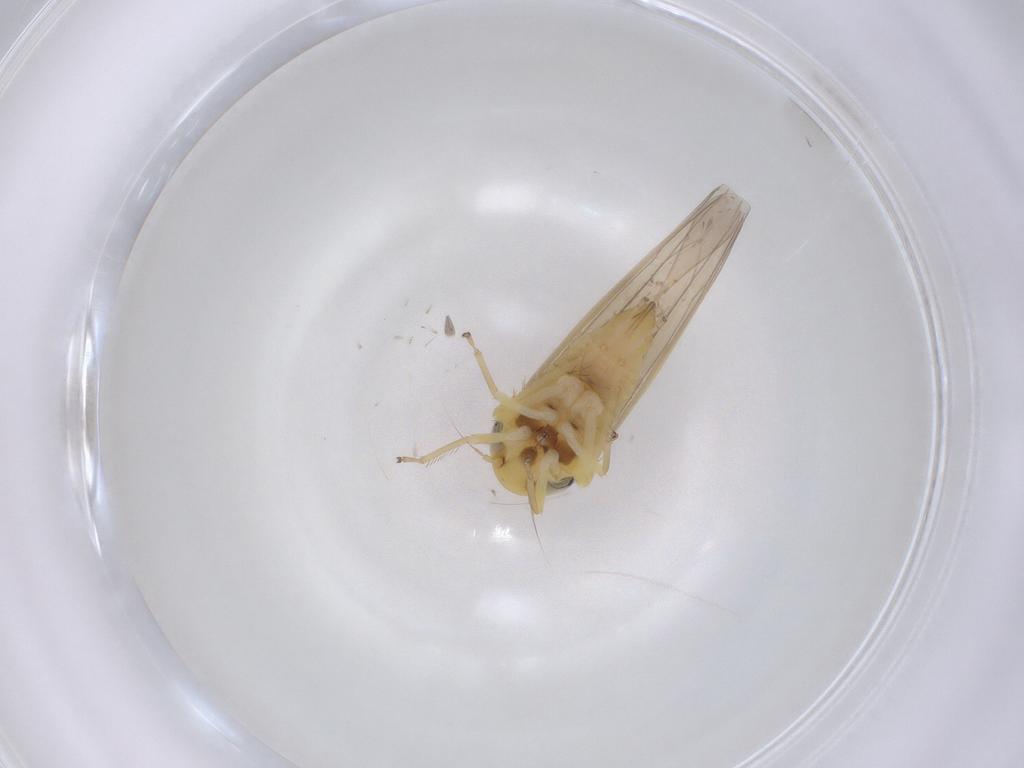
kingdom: Animalia
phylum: Arthropoda
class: Insecta
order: Hemiptera
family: Cicadellidae
